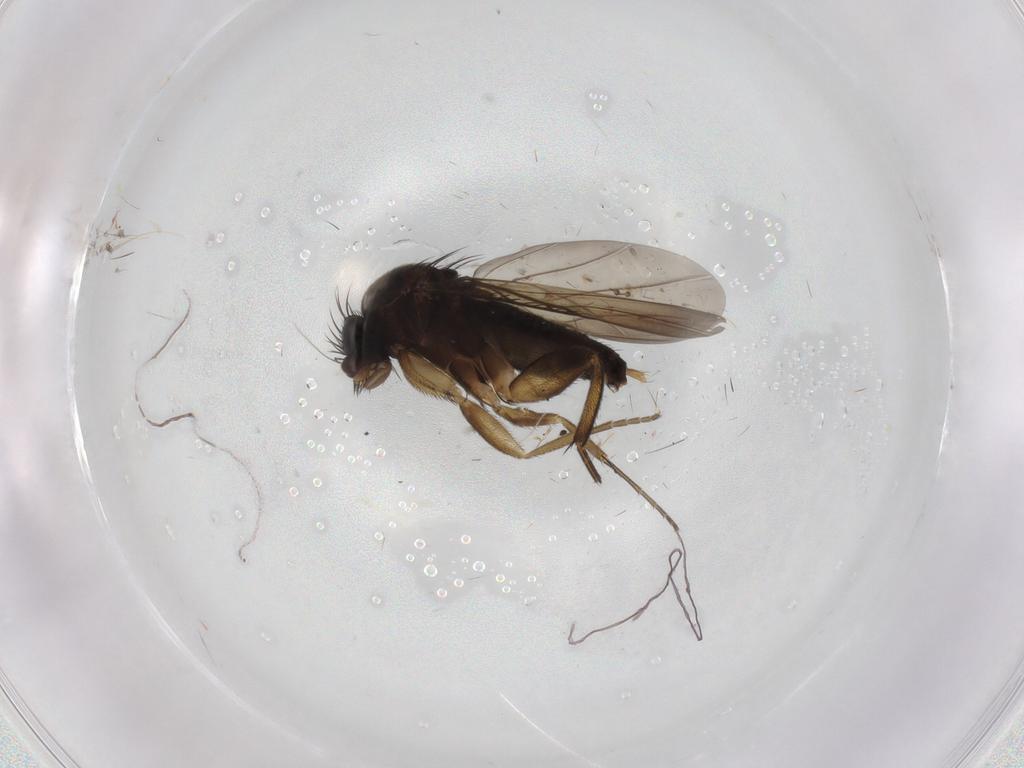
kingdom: Animalia
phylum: Arthropoda
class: Insecta
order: Diptera
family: Phoridae
